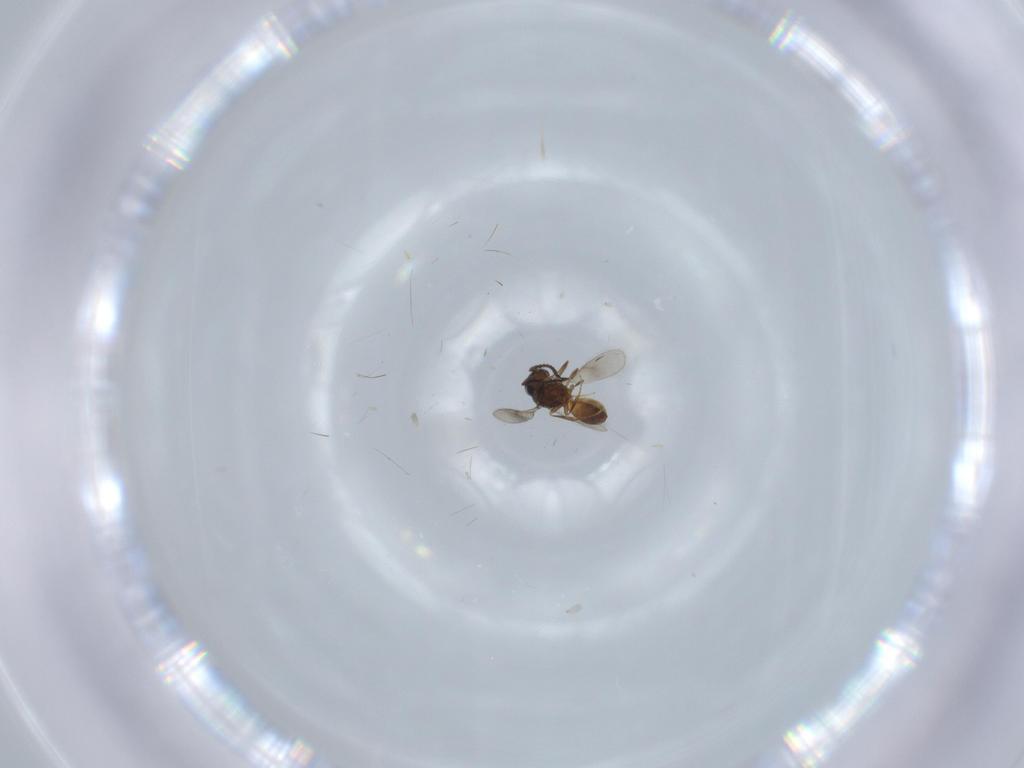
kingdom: Animalia
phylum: Arthropoda
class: Insecta
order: Hymenoptera
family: Scelionidae
